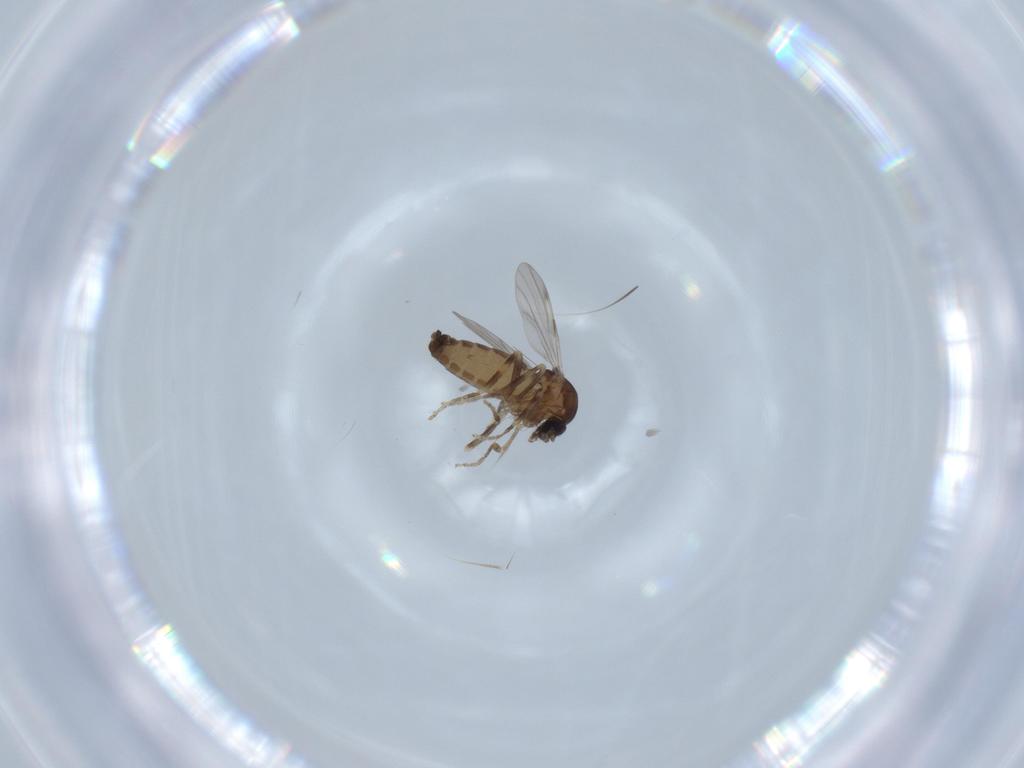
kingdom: Animalia
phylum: Arthropoda
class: Insecta
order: Diptera
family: Ceratopogonidae
